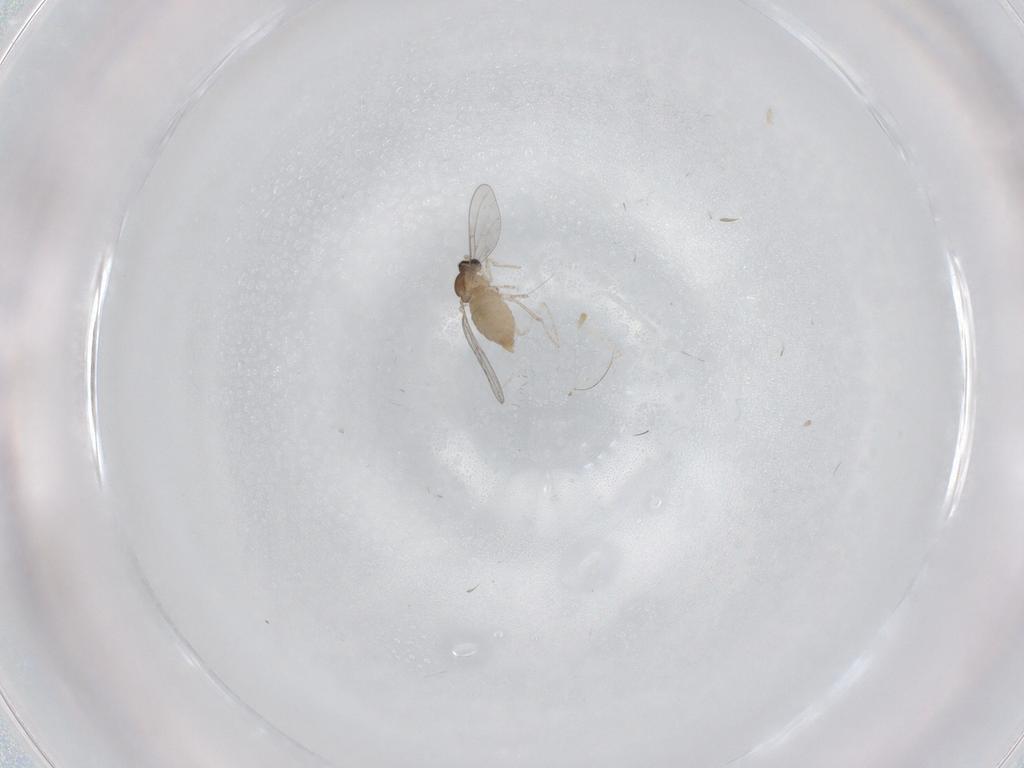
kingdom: Animalia
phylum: Arthropoda
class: Insecta
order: Diptera
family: Cecidomyiidae
